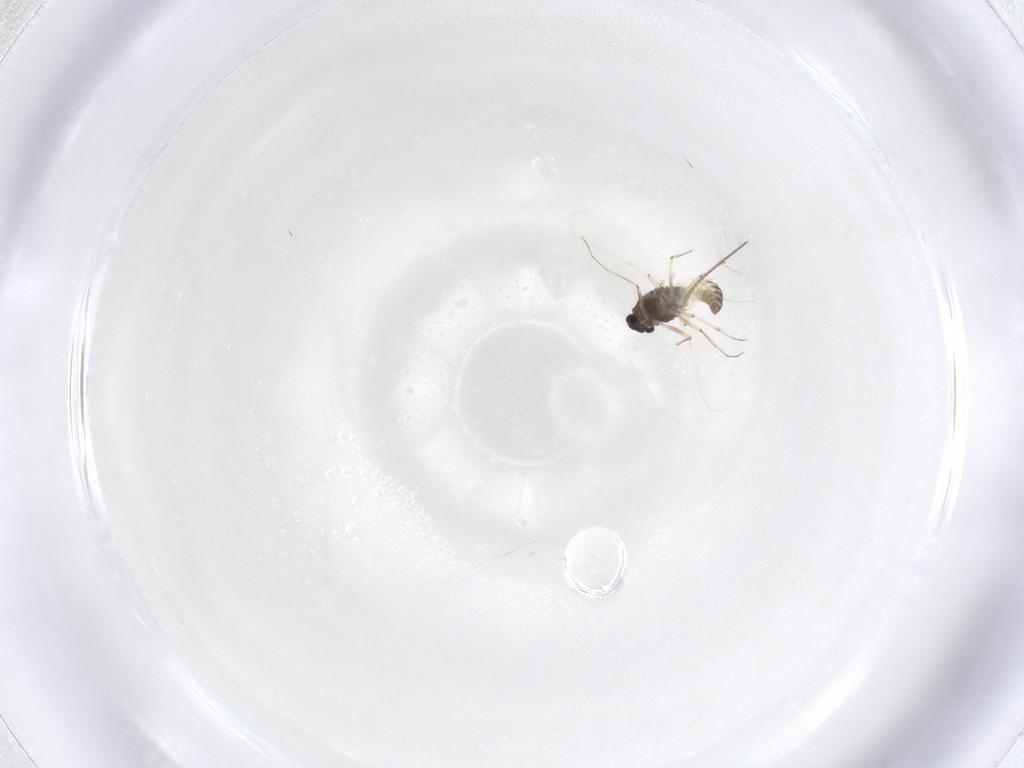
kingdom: Animalia
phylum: Arthropoda
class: Insecta
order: Diptera
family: Chironomidae
